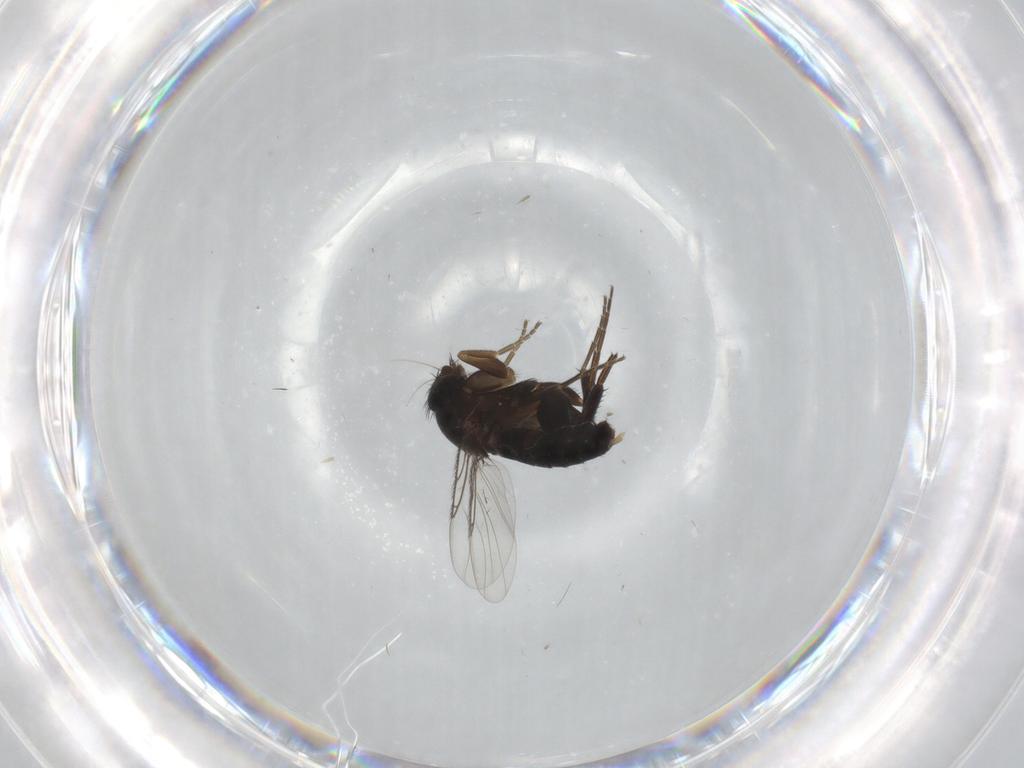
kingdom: Animalia
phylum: Arthropoda
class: Insecta
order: Diptera
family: Phoridae
